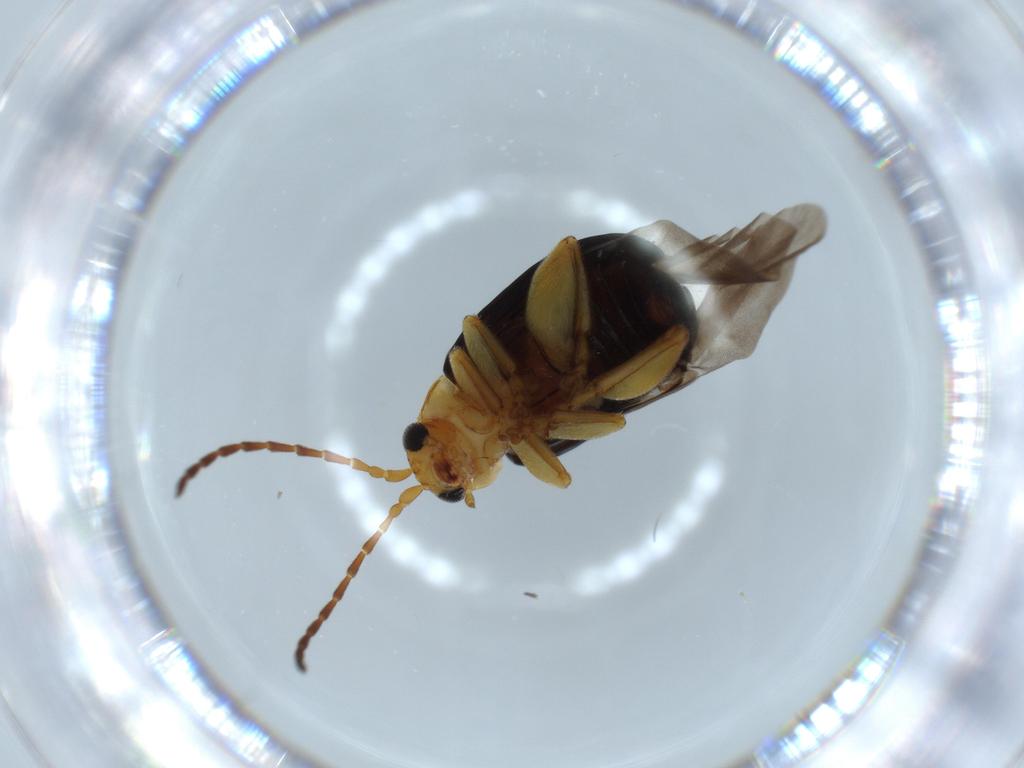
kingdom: Animalia
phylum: Arthropoda
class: Insecta
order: Coleoptera
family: Chrysomelidae
